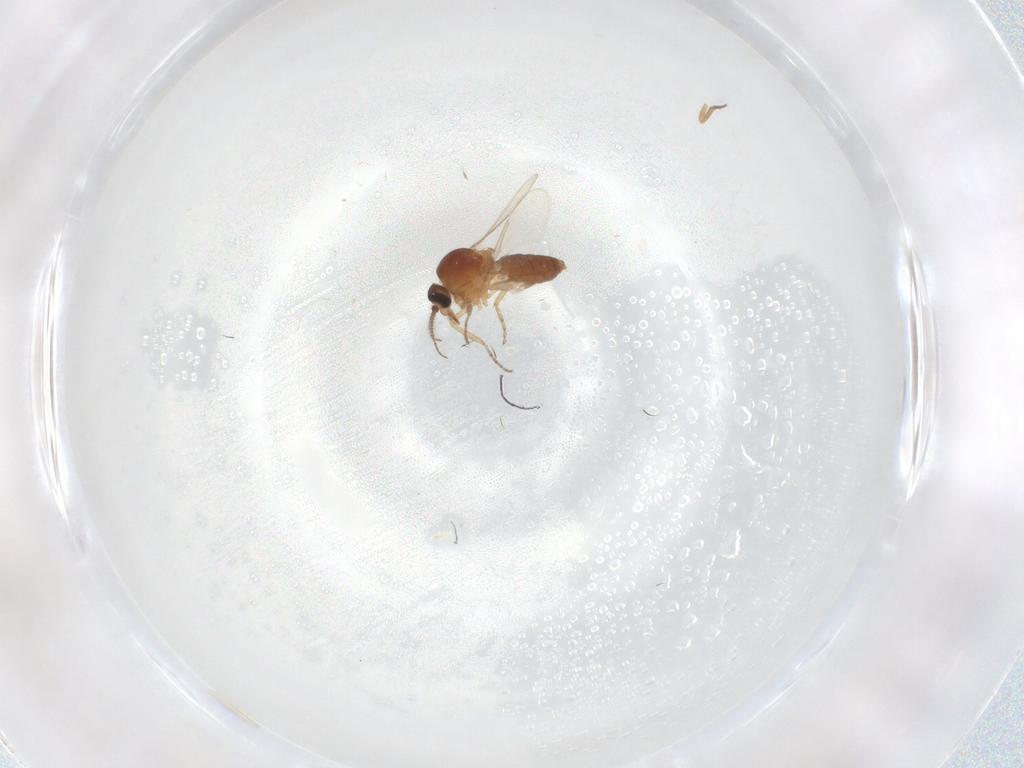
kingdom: Animalia
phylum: Arthropoda
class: Insecta
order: Diptera
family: Ceratopogonidae
